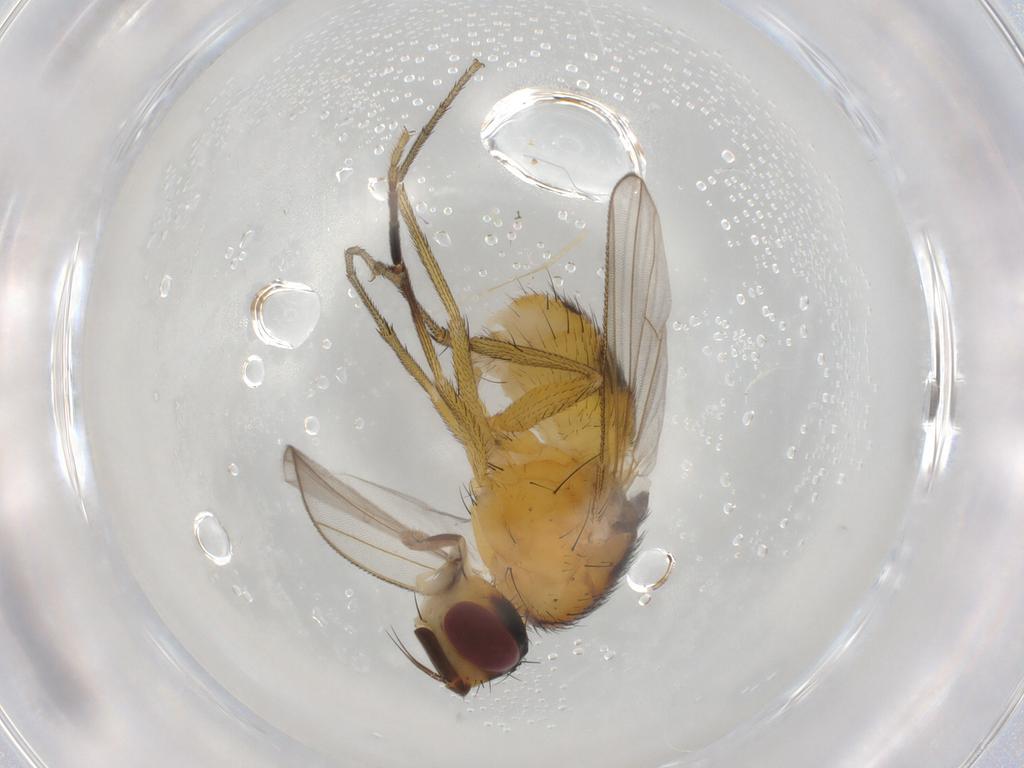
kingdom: Animalia
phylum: Arthropoda
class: Insecta
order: Diptera
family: Muscidae
